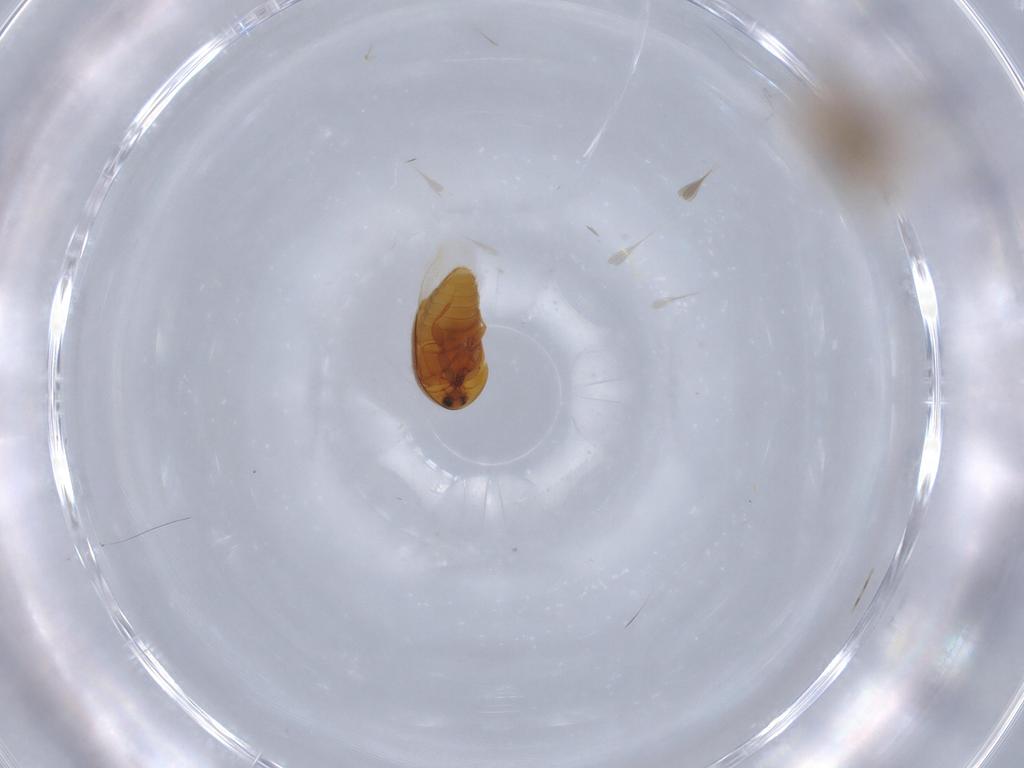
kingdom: Animalia
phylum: Arthropoda
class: Insecta
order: Coleoptera
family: Corylophidae
